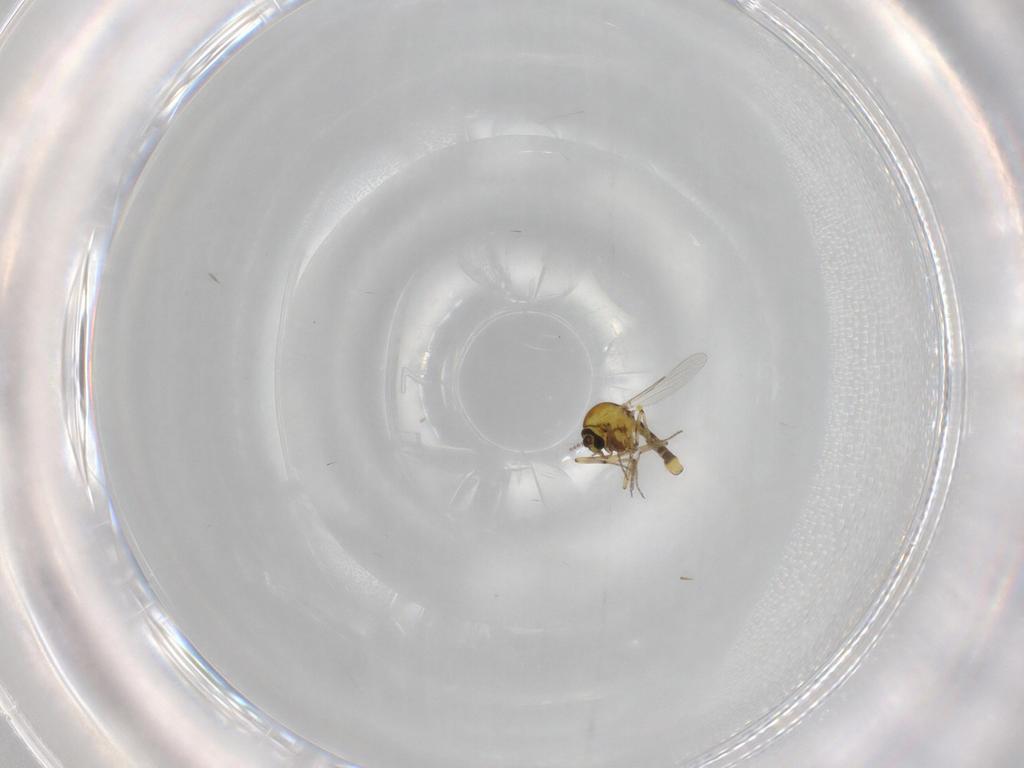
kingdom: Animalia
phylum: Arthropoda
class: Insecta
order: Diptera
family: Ceratopogonidae
